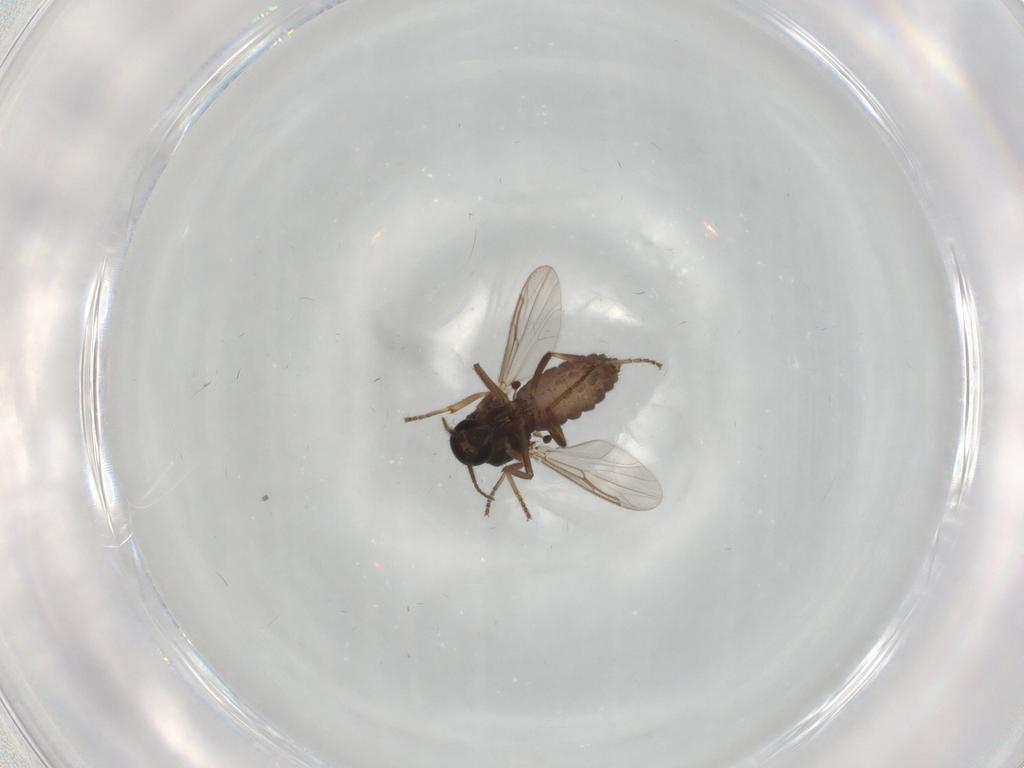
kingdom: Animalia
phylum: Arthropoda
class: Insecta
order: Diptera
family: Ceratopogonidae
